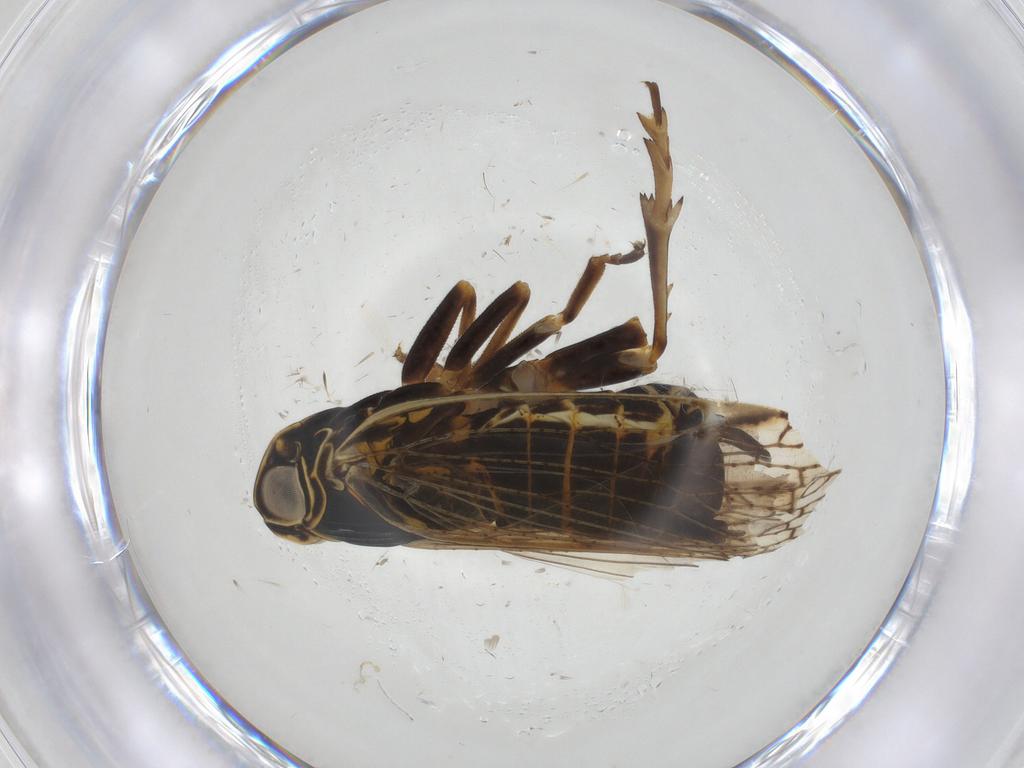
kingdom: Animalia
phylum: Arthropoda
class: Insecta
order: Hemiptera
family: Cixiidae
